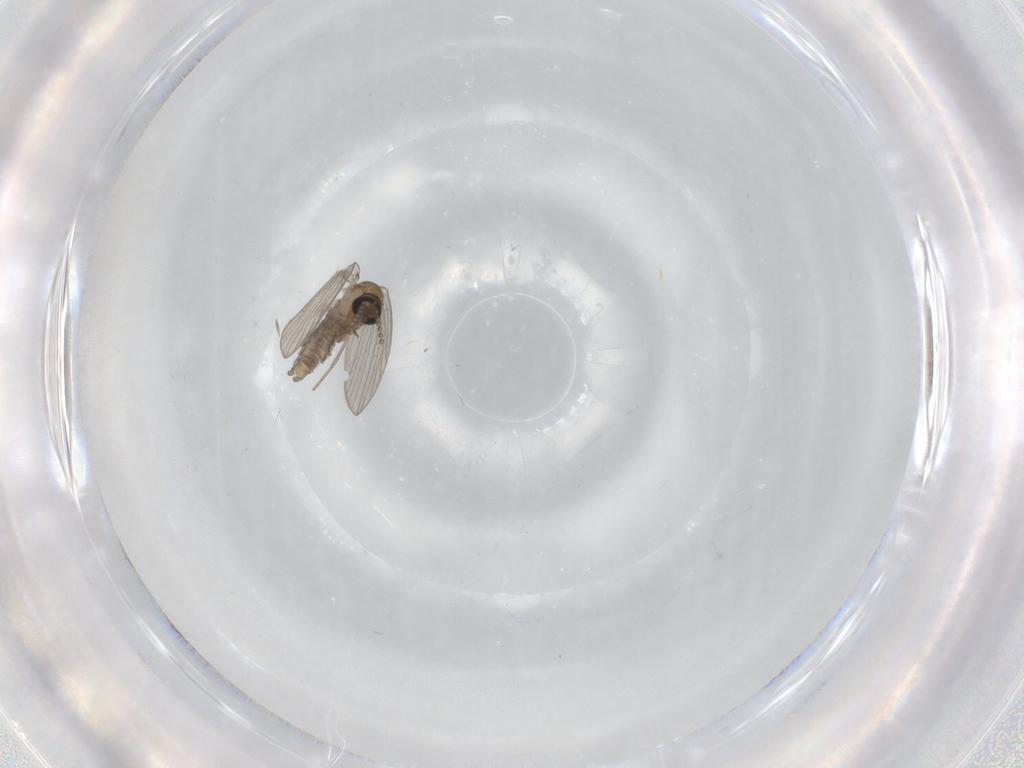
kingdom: Animalia
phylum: Arthropoda
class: Insecta
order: Diptera
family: Psychodidae
